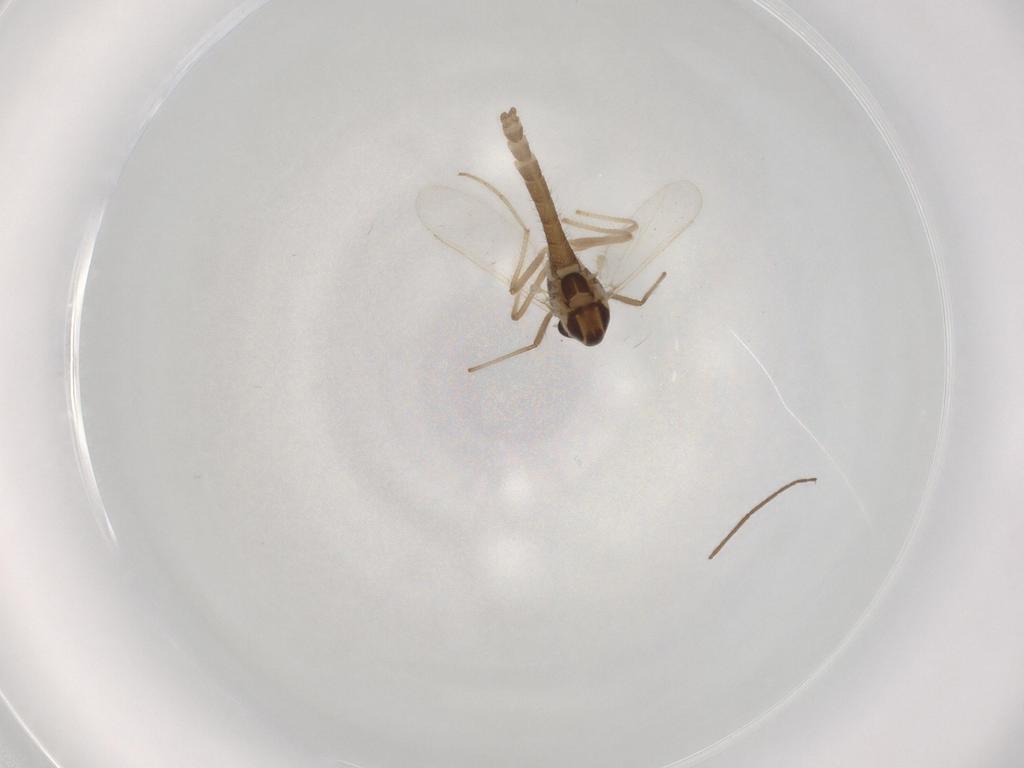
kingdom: Animalia
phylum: Arthropoda
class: Insecta
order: Diptera
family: Chironomidae
